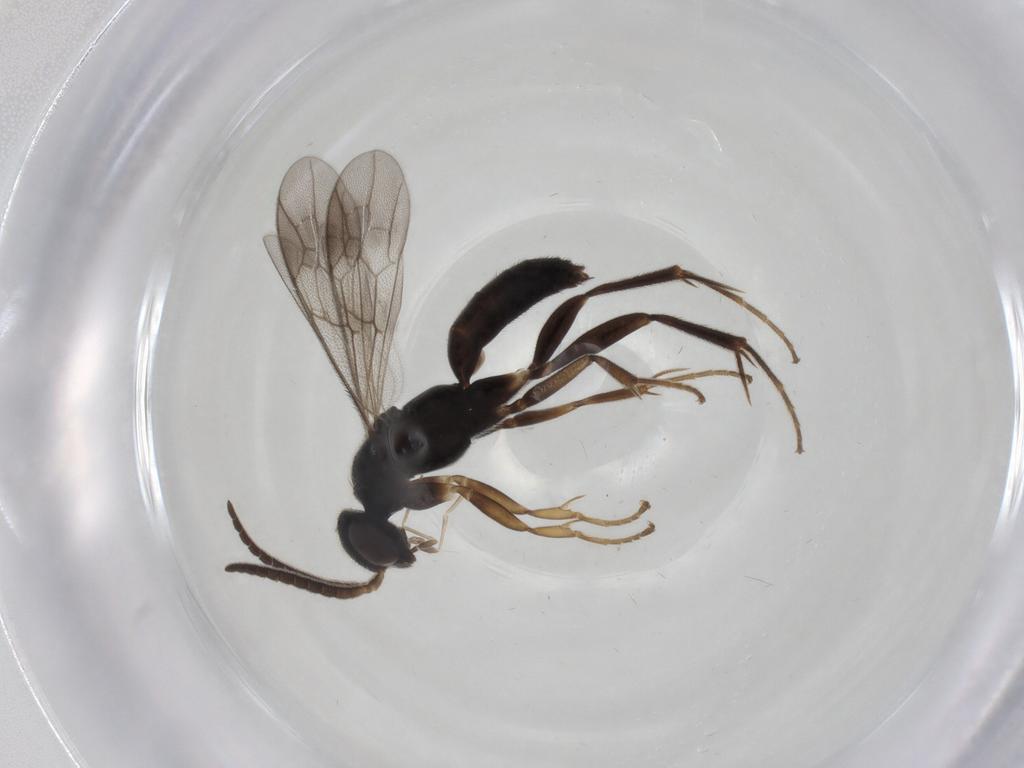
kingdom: Animalia
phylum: Arthropoda
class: Insecta
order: Hymenoptera
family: Pompilidae
